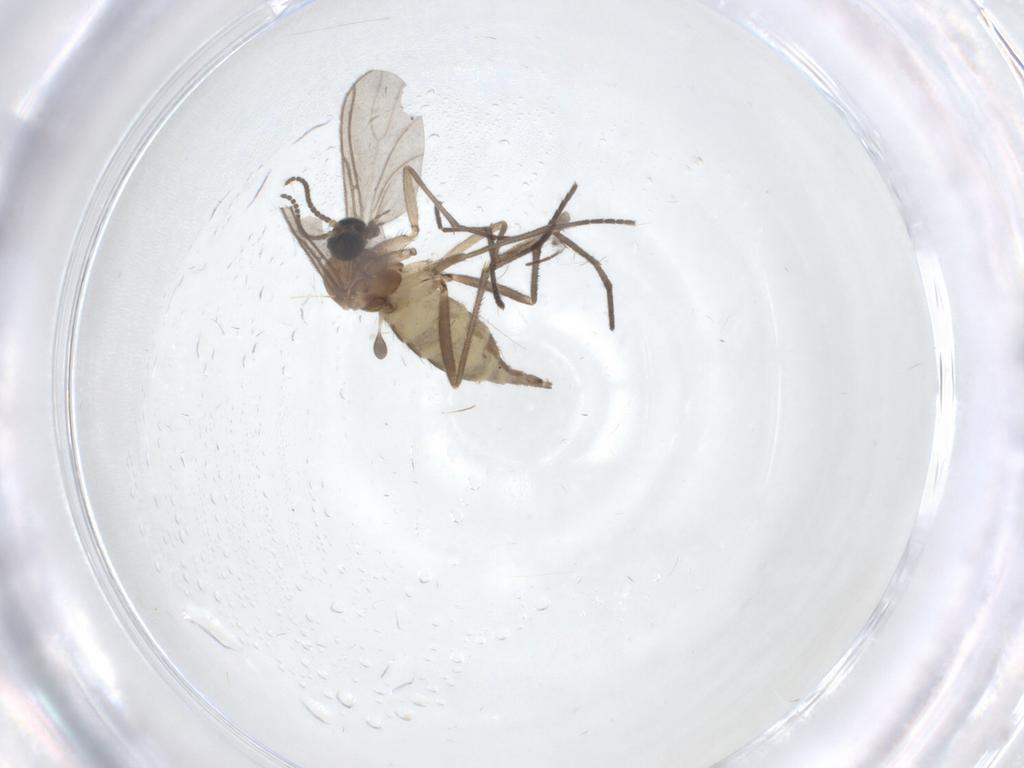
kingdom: Animalia
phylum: Arthropoda
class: Insecta
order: Diptera
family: Sciaridae
